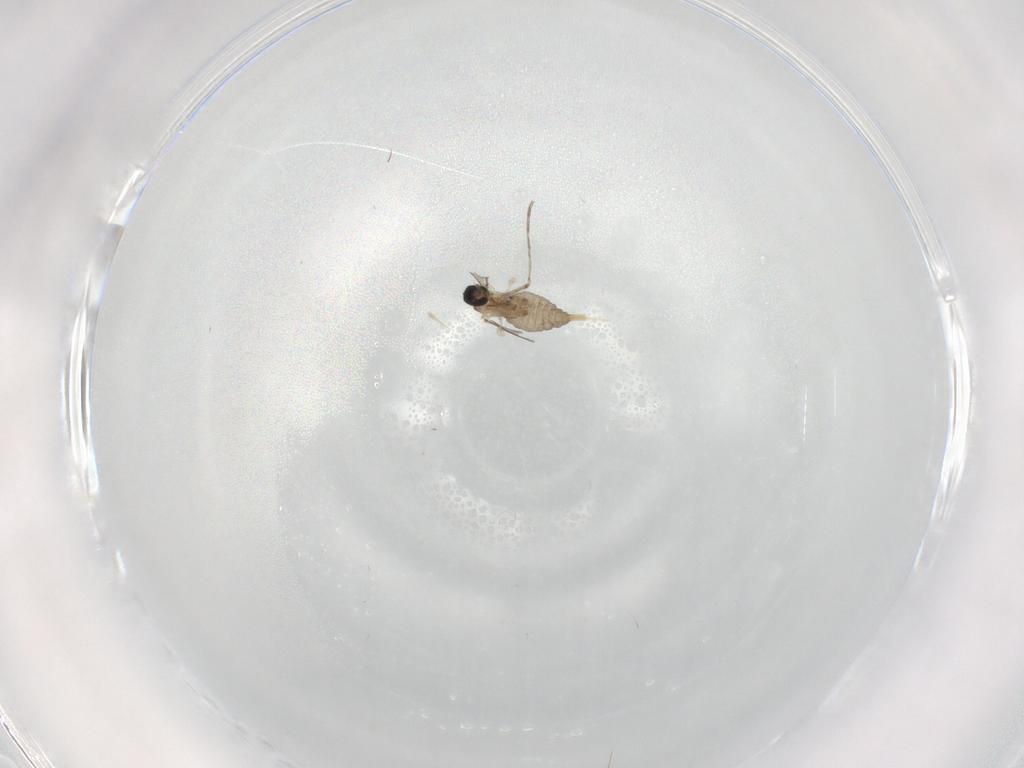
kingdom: Animalia
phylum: Arthropoda
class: Insecta
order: Diptera
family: Cecidomyiidae
